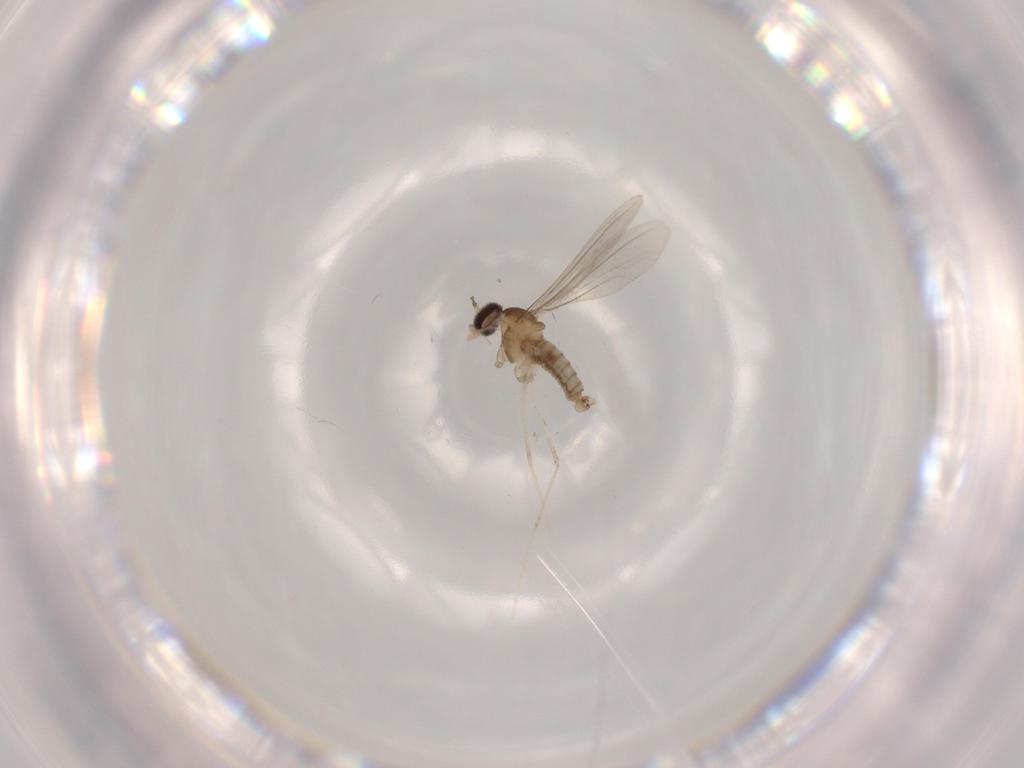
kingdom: Animalia
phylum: Arthropoda
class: Insecta
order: Diptera
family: Cecidomyiidae
